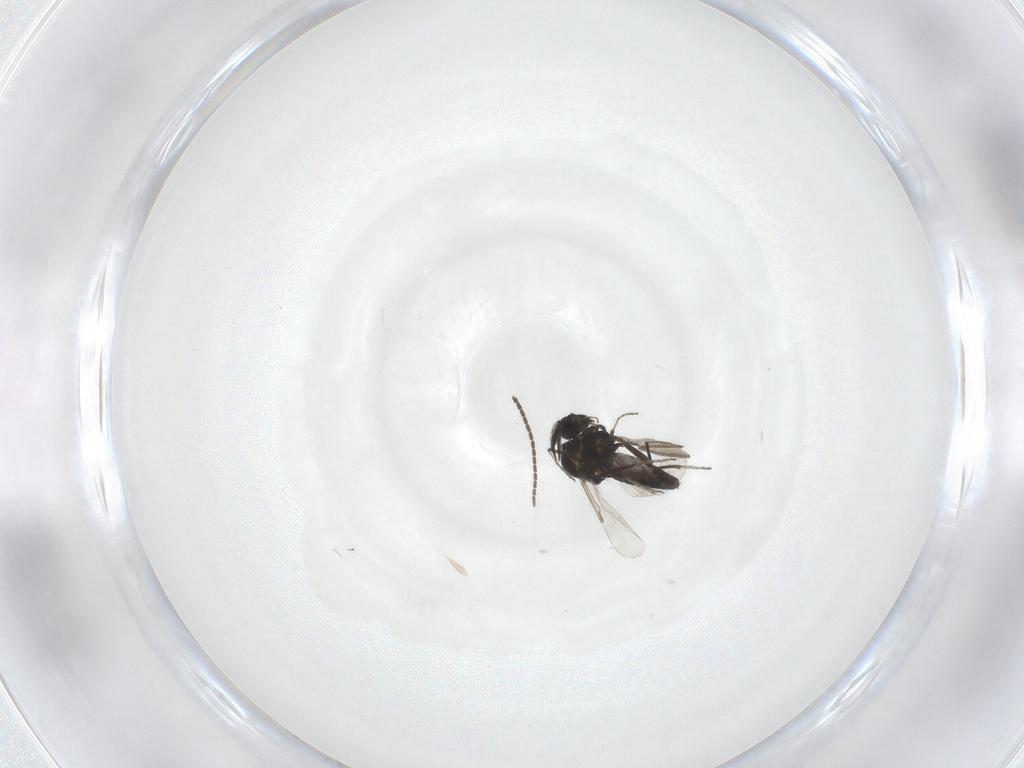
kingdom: Animalia
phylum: Arthropoda
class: Insecta
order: Diptera
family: Ceratopogonidae
